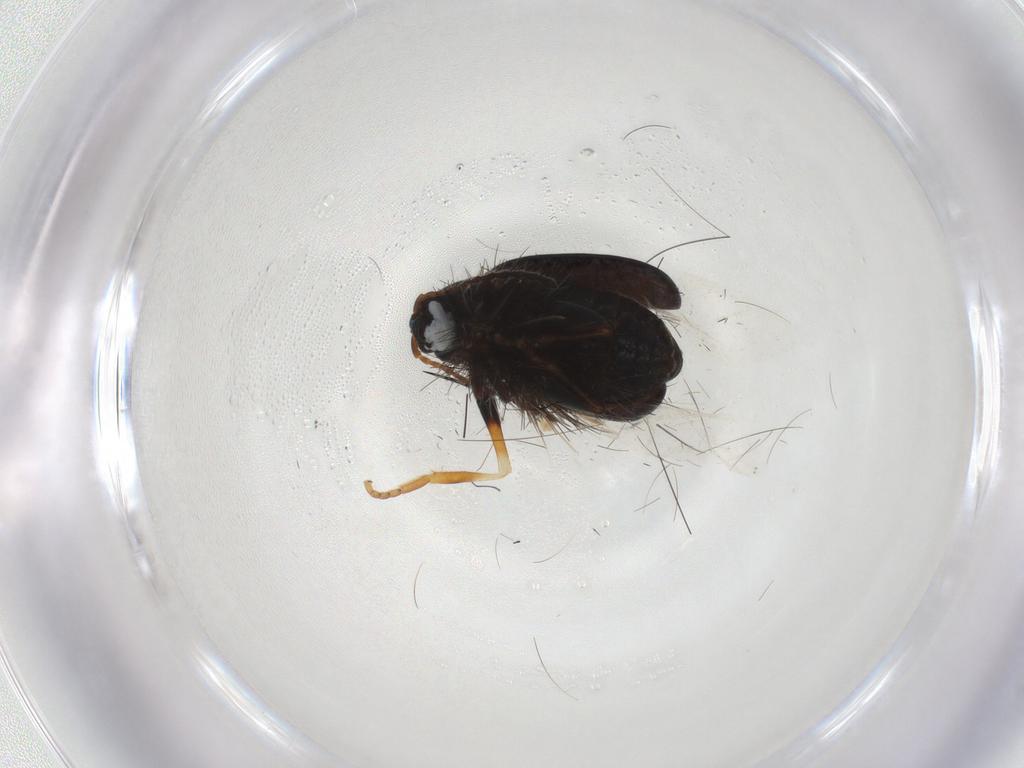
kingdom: Animalia
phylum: Arthropoda
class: Insecta
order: Coleoptera
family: Chrysomelidae
